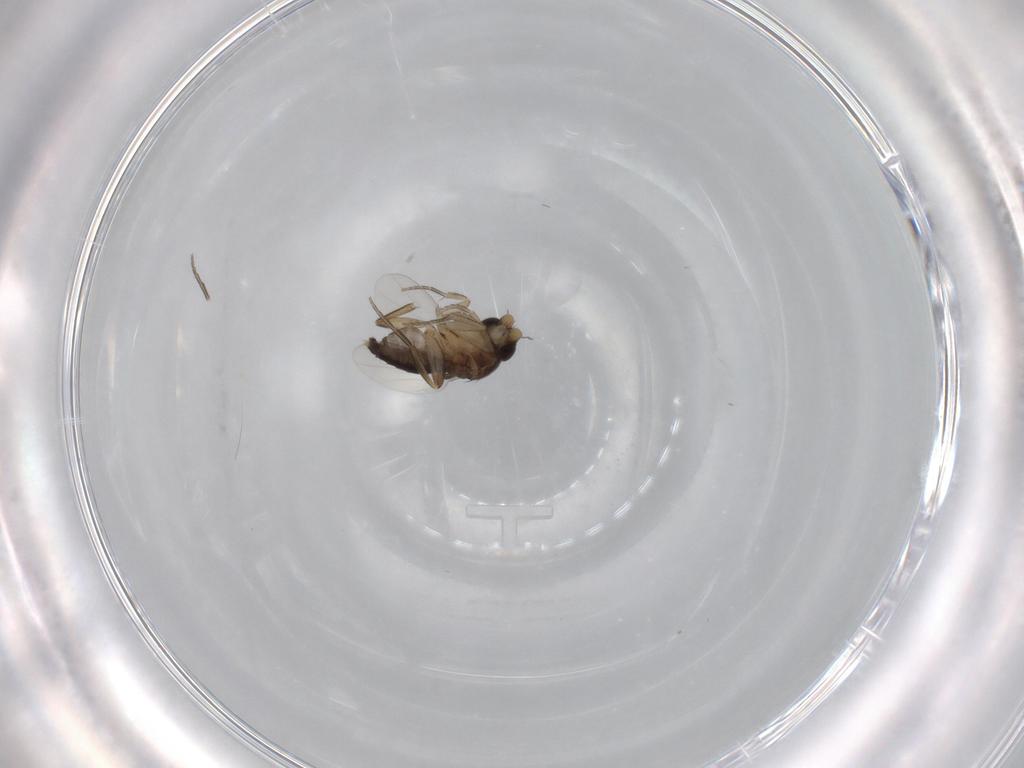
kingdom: Animalia
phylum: Arthropoda
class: Insecta
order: Diptera
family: Phoridae
